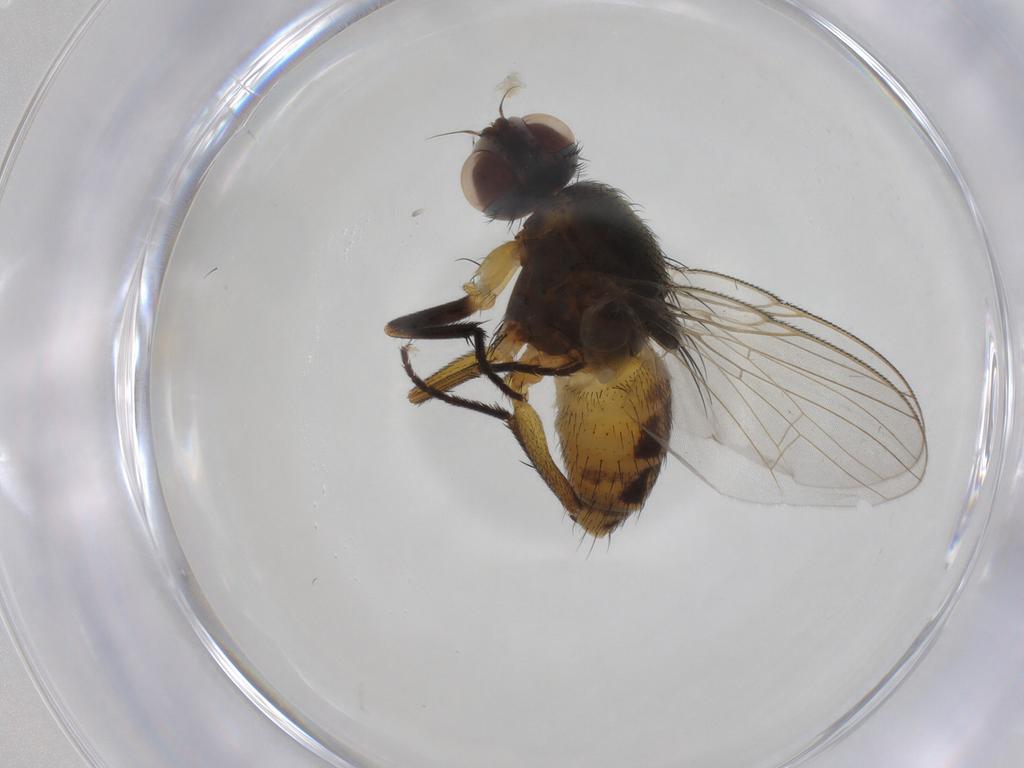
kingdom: Animalia
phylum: Arthropoda
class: Insecta
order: Diptera
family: Muscidae
